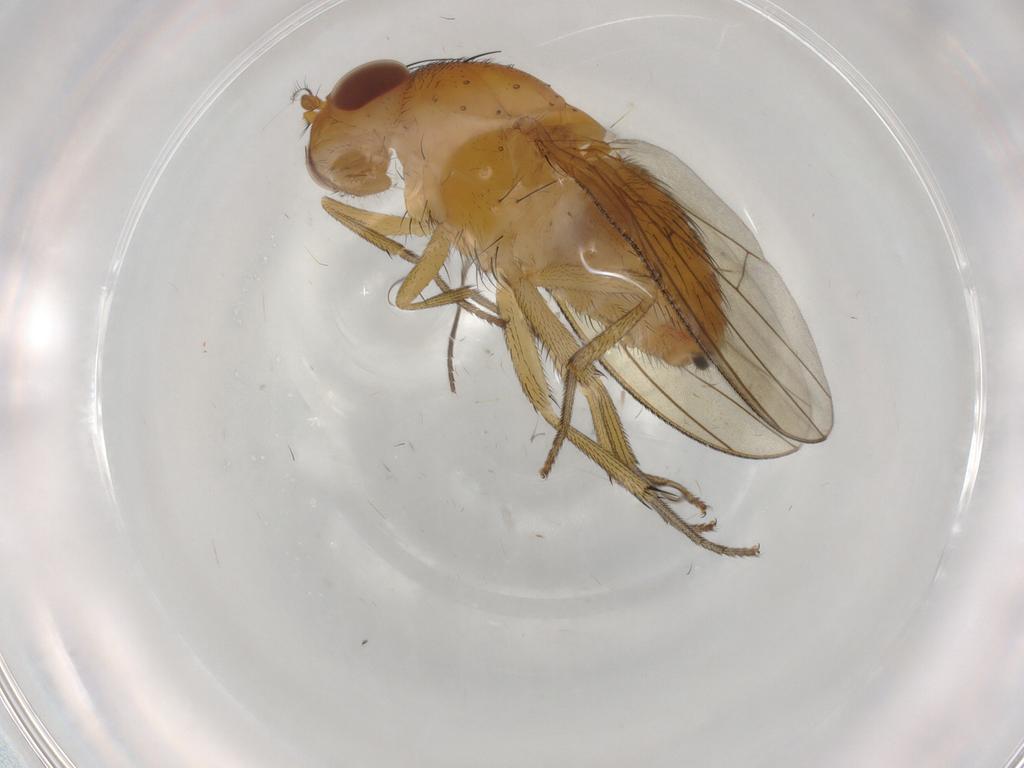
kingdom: Animalia
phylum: Arthropoda
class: Insecta
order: Diptera
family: Psychodidae
